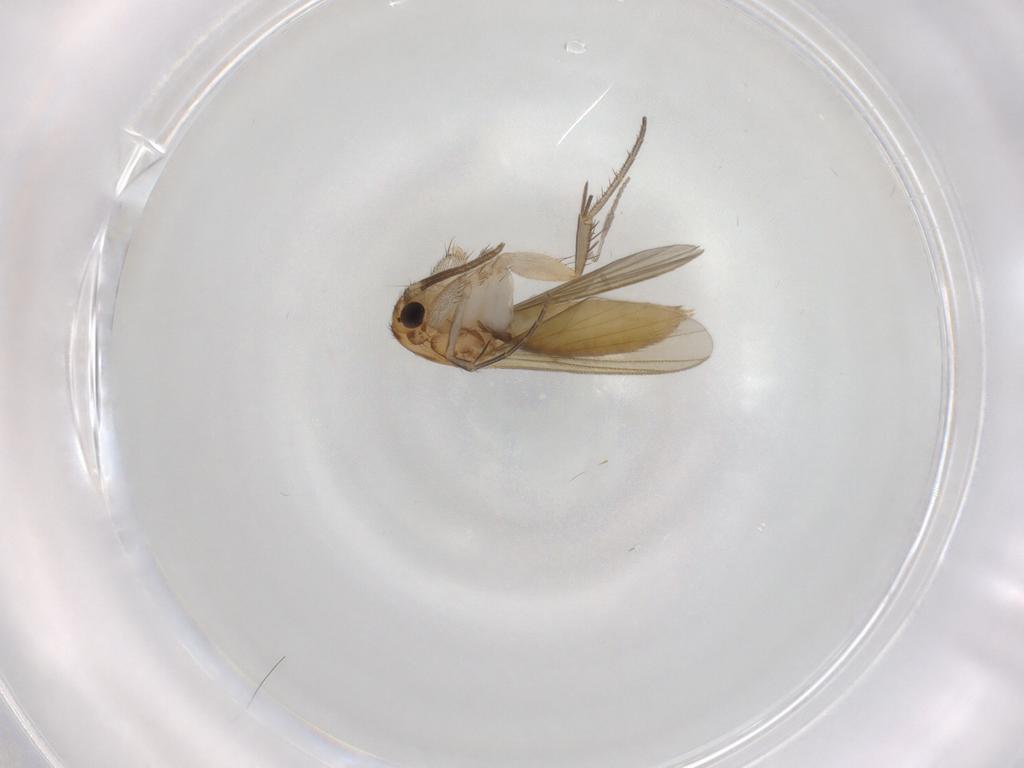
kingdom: Animalia
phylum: Arthropoda
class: Insecta
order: Diptera
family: Mycetophilidae
